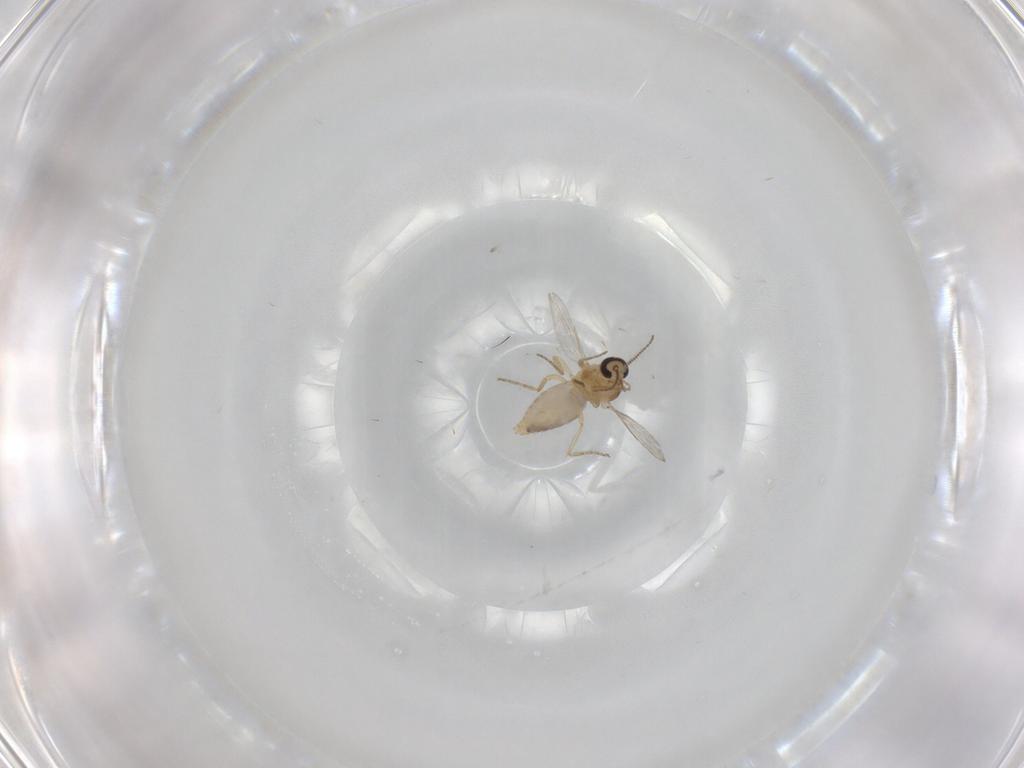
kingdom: Animalia
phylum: Arthropoda
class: Insecta
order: Diptera
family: Ceratopogonidae
